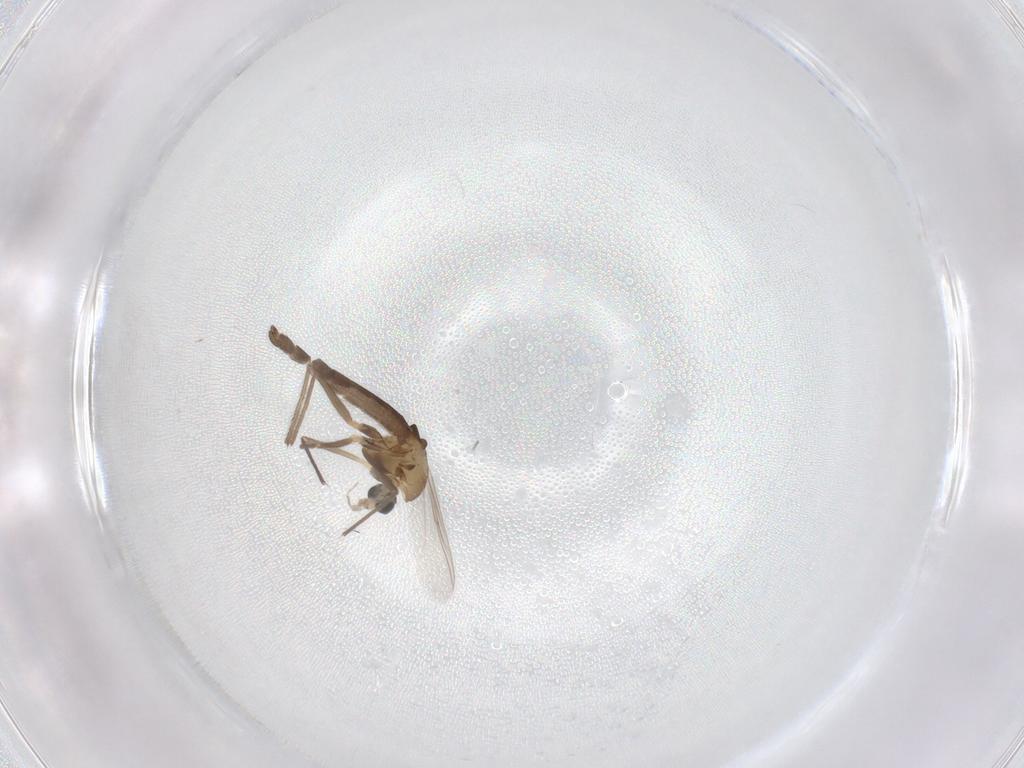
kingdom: Animalia
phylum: Arthropoda
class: Insecta
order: Diptera
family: Chironomidae
